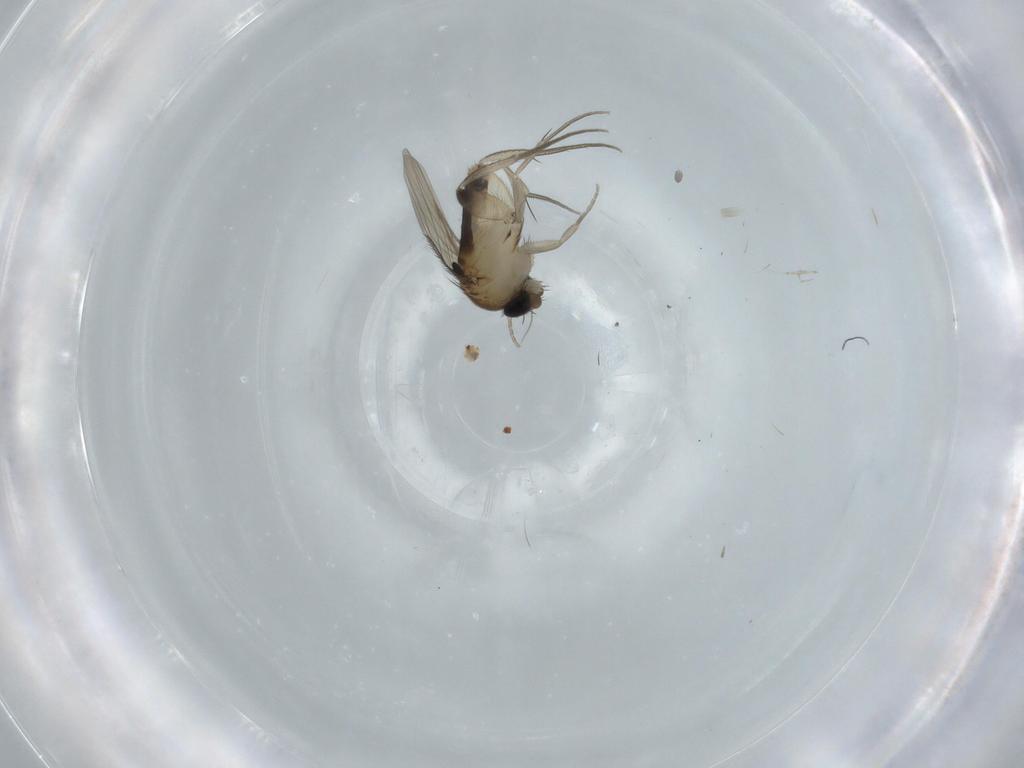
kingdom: Animalia
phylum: Arthropoda
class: Insecta
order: Diptera
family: Phoridae
